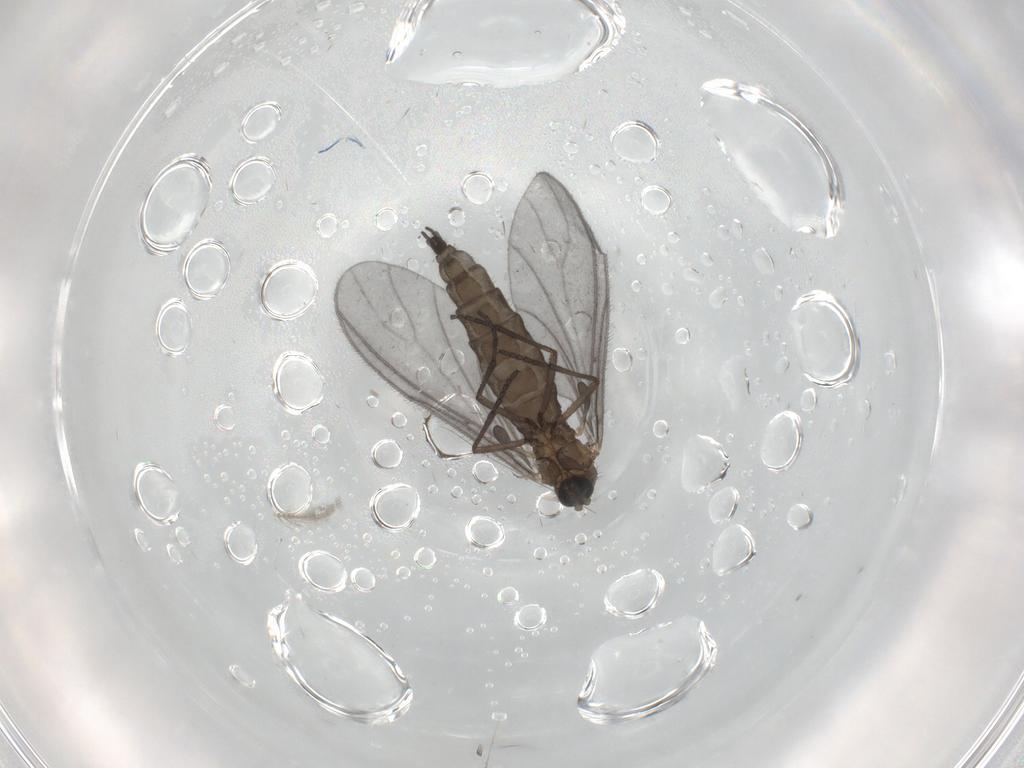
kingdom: Animalia
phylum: Arthropoda
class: Insecta
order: Diptera
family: Sciaridae
